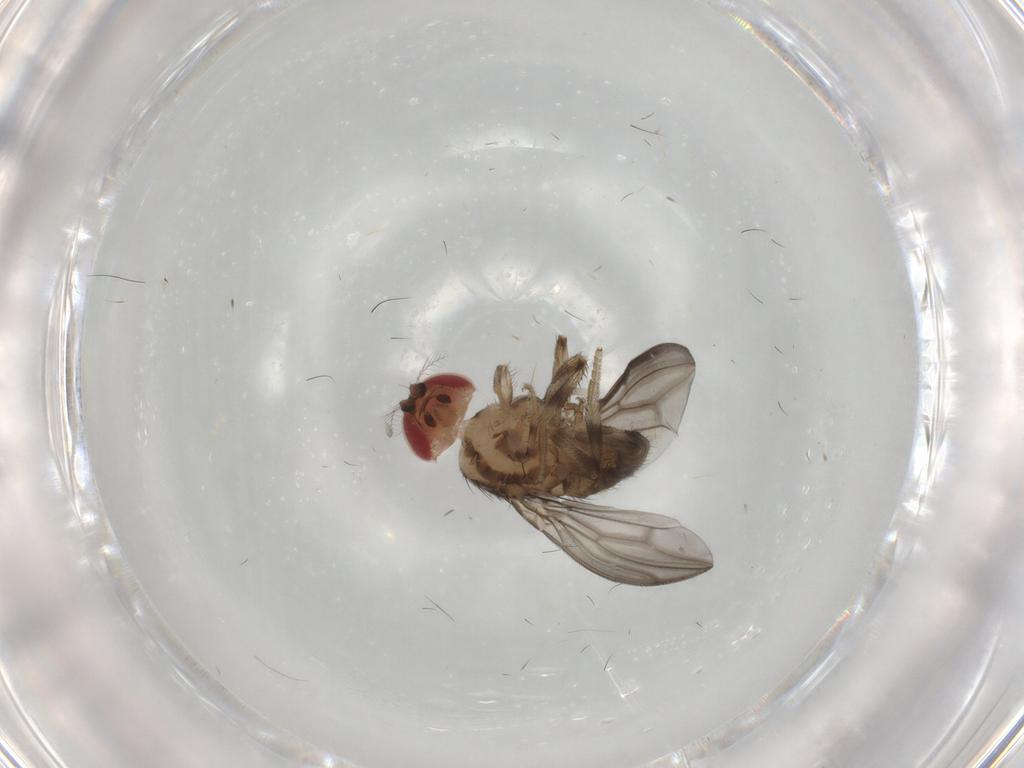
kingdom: Animalia
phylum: Arthropoda
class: Insecta
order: Diptera
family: Drosophilidae
